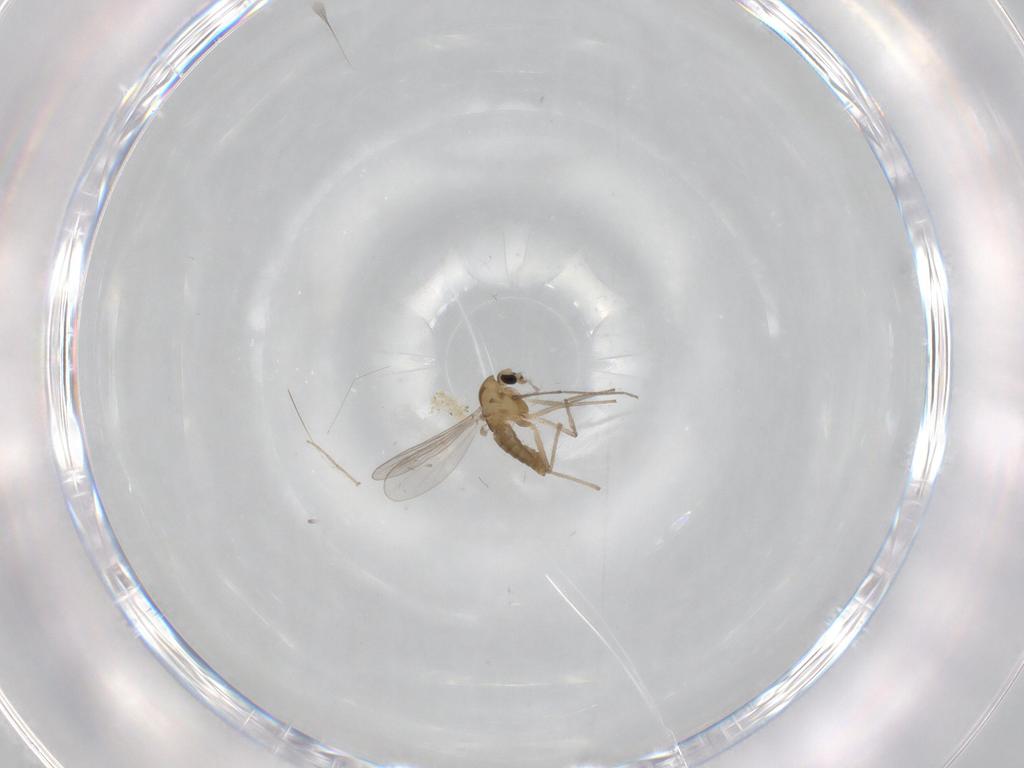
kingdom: Animalia
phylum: Arthropoda
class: Insecta
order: Diptera
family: Chironomidae
